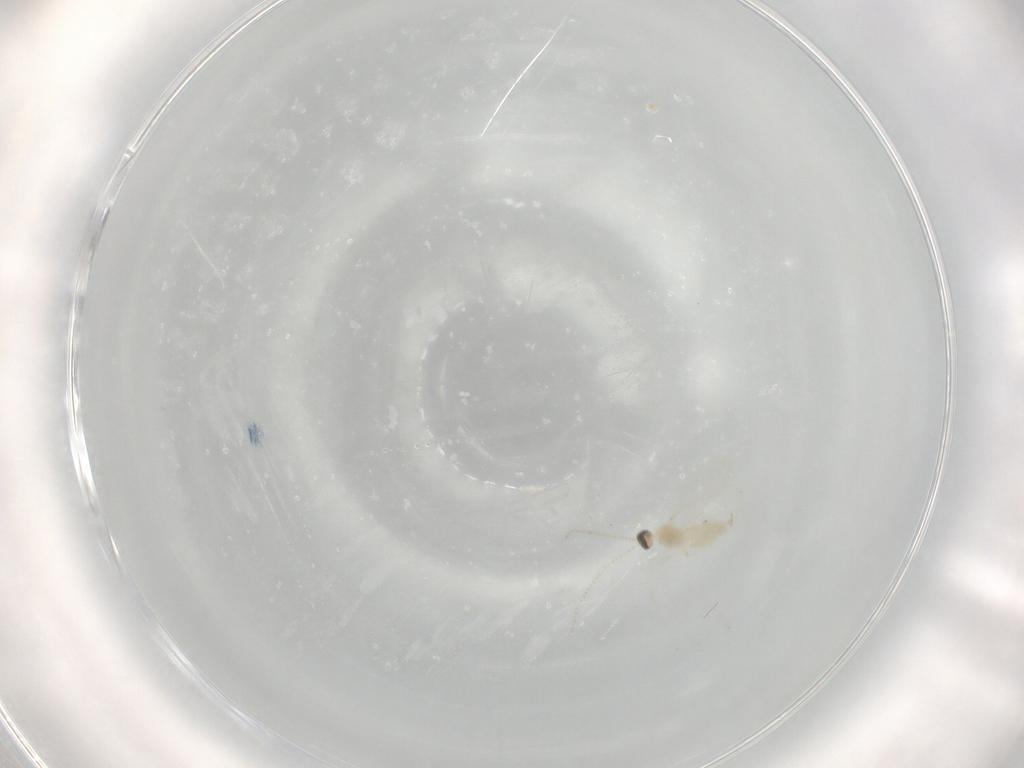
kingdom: Animalia
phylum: Arthropoda
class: Insecta
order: Diptera
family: Cecidomyiidae
